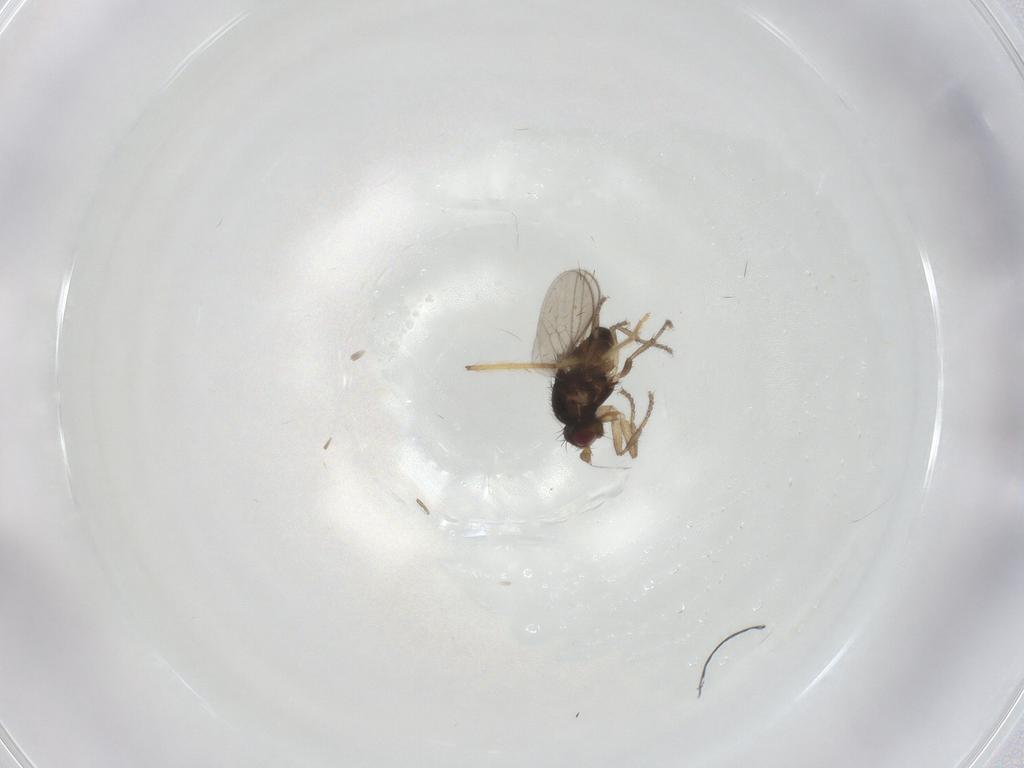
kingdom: Animalia
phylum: Arthropoda
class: Insecta
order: Diptera
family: Sphaeroceridae
